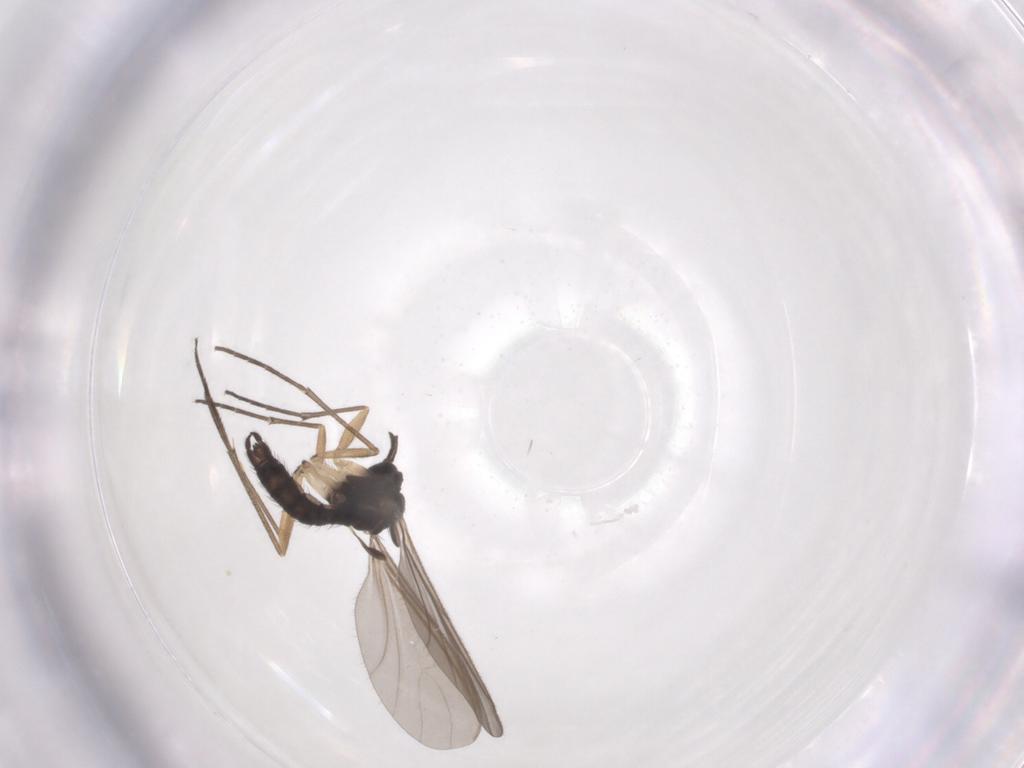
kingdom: Animalia
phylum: Arthropoda
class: Insecta
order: Diptera
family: Sciaridae
